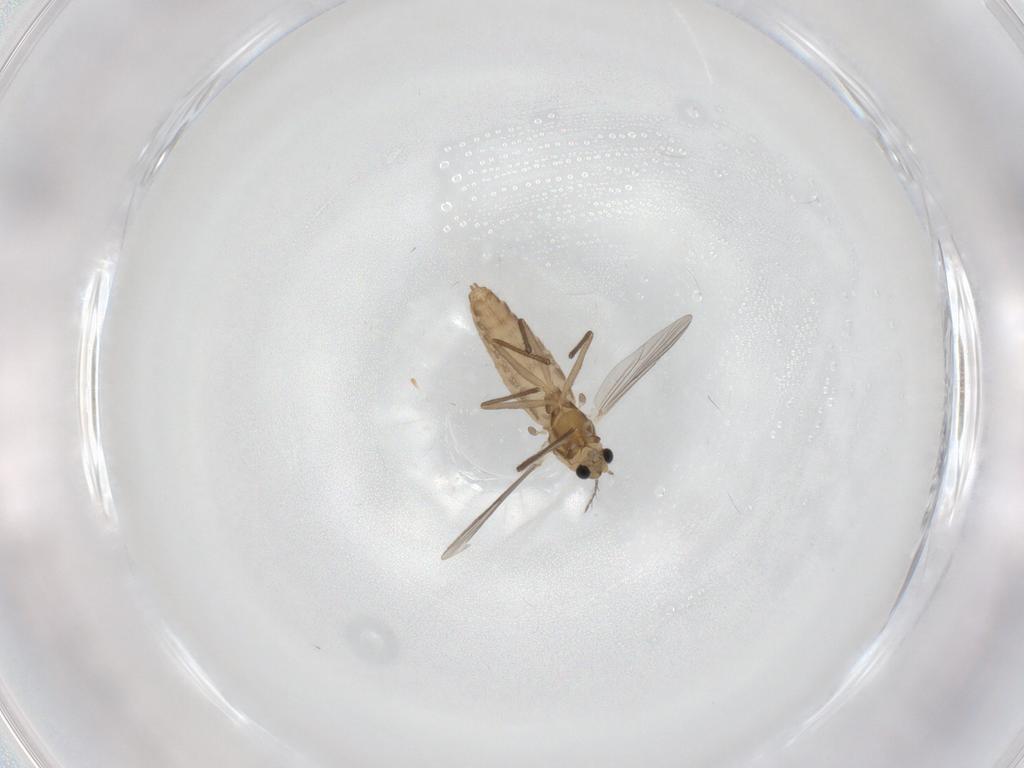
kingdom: Animalia
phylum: Arthropoda
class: Insecta
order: Diptera
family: Chironomidae
